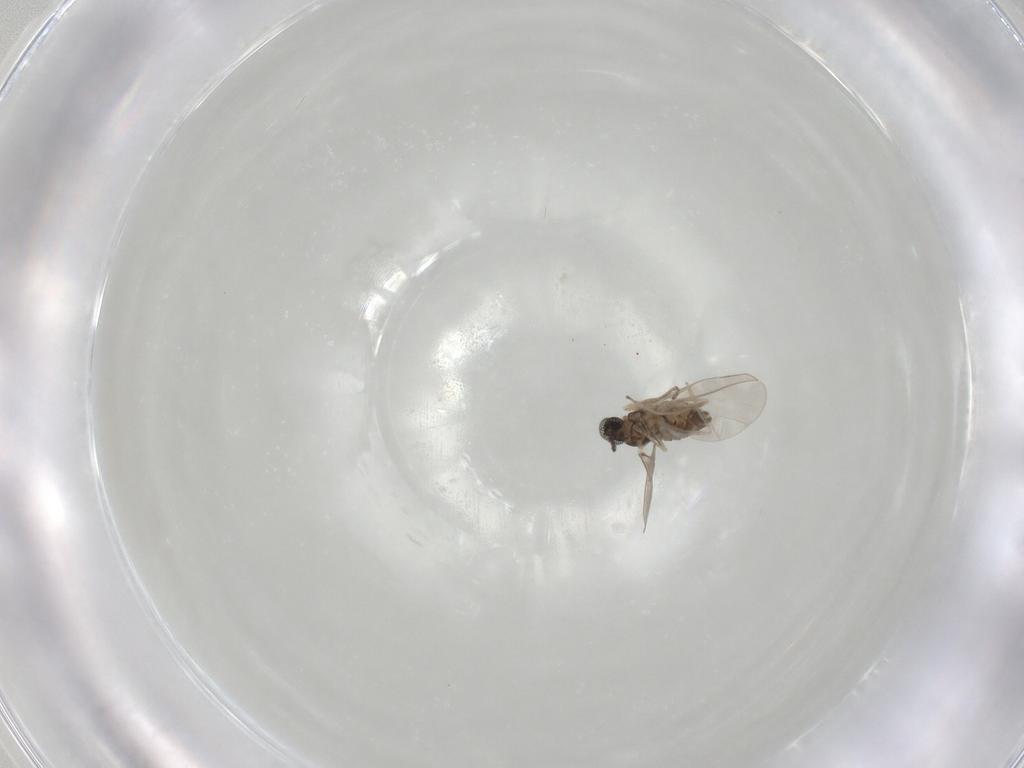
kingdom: Animalia
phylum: Arthropoda
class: Insecta
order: Diptera
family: Cecidomyiidae
